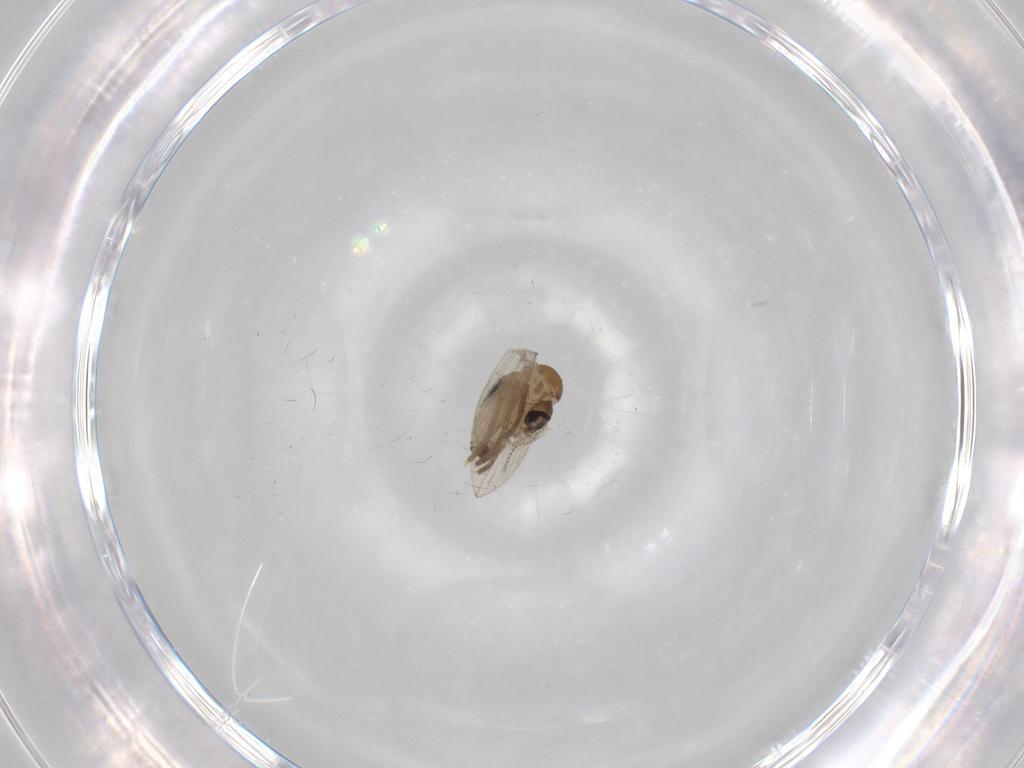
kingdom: Animalia
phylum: Arthropoda
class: Insecta
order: Diptera
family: Psychodidae
